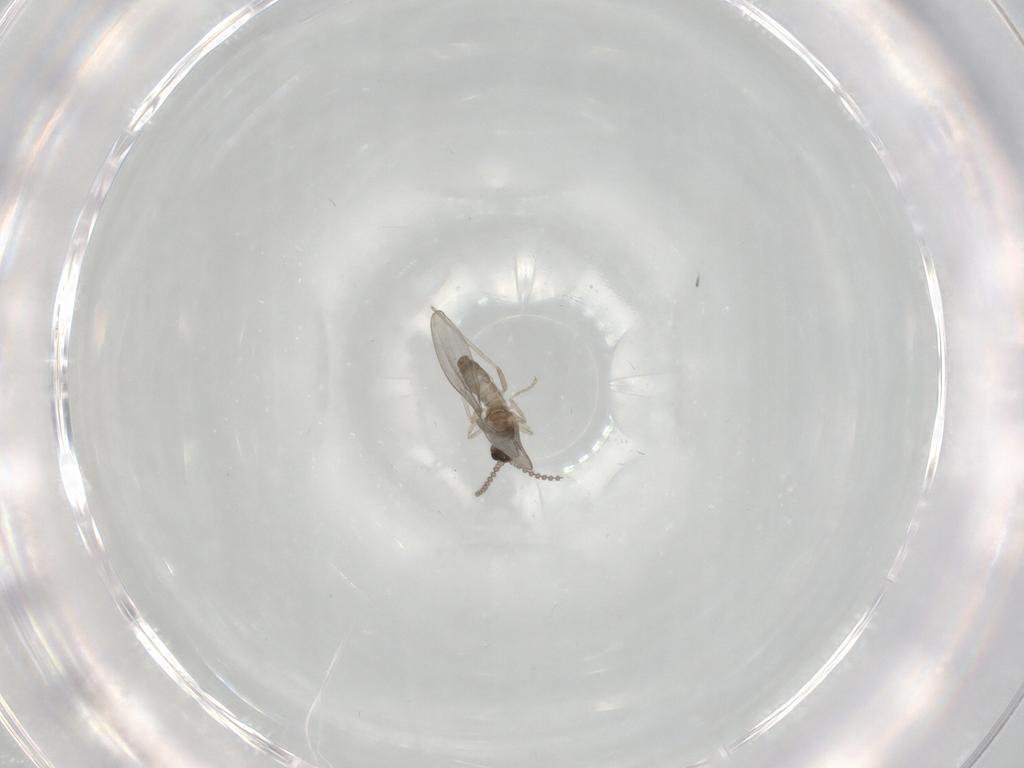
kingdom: Animalia
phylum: Arthropoda
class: Insecta
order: Diptera
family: Cecidomyiidae
